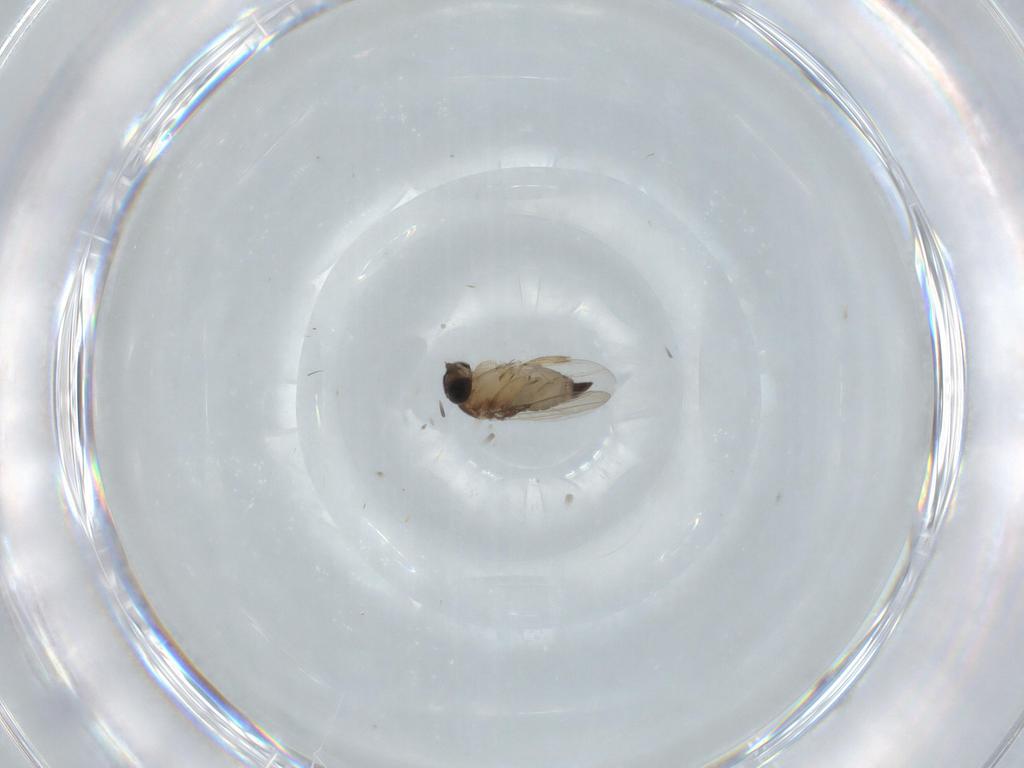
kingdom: Animalia
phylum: Arthropoda
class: Insecta
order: Diptera
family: Phoridae
